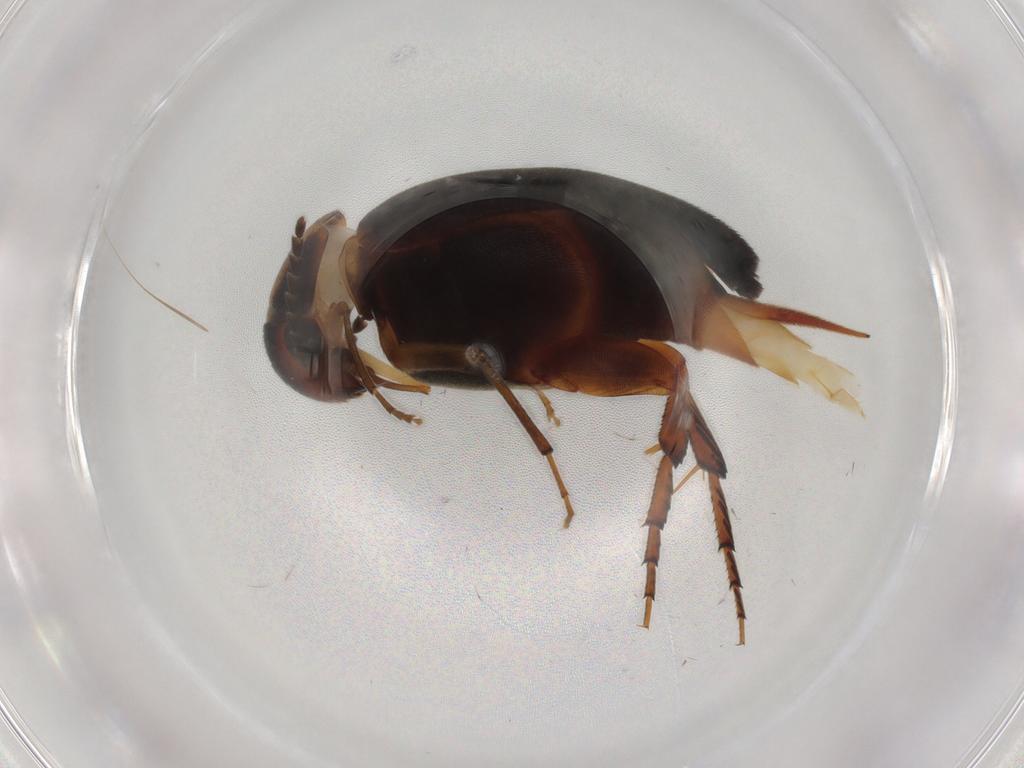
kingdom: Animalia
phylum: Arthropoda
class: Insecta
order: Coleoptera
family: Mordellidae
